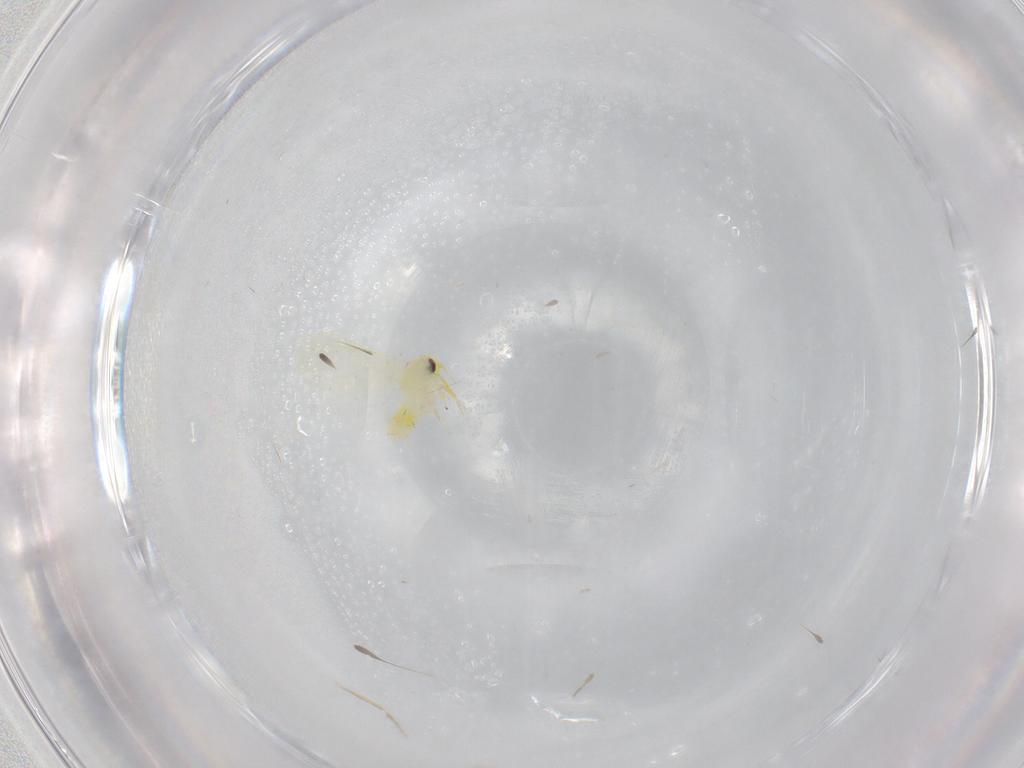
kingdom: Animalia
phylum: Arthropoda
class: Insecta
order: Hemiptera
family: Aleyrodidae
